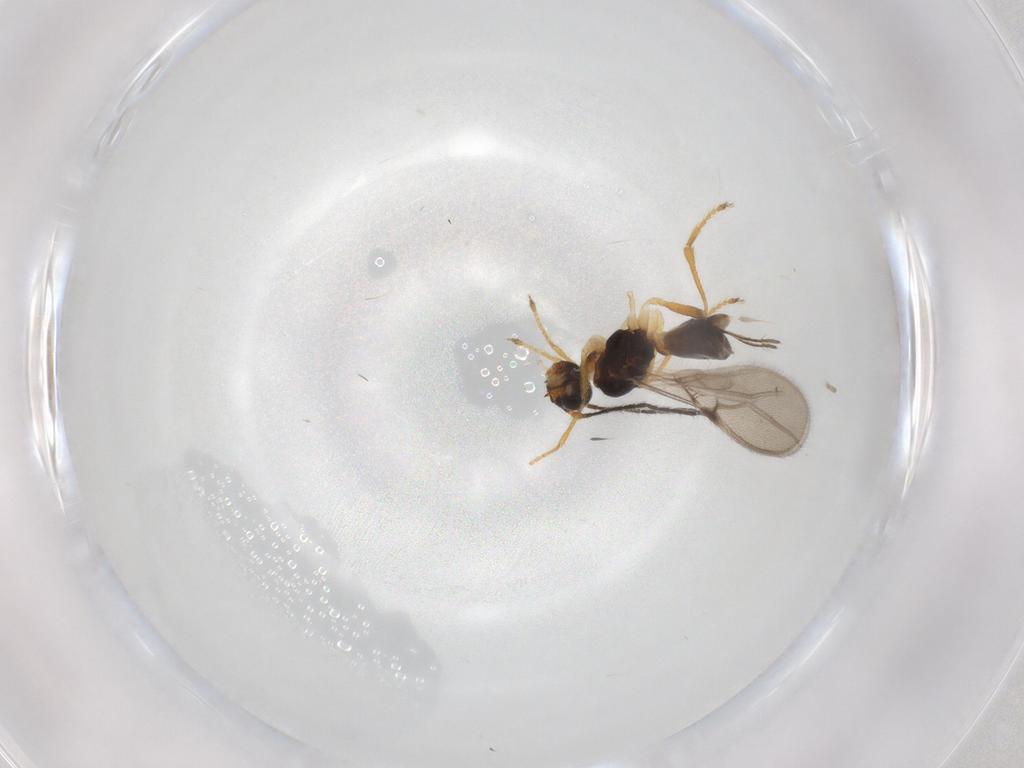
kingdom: Animalia
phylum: Arthropoda
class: Insecta
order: Hymenoptera
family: Braconidae
